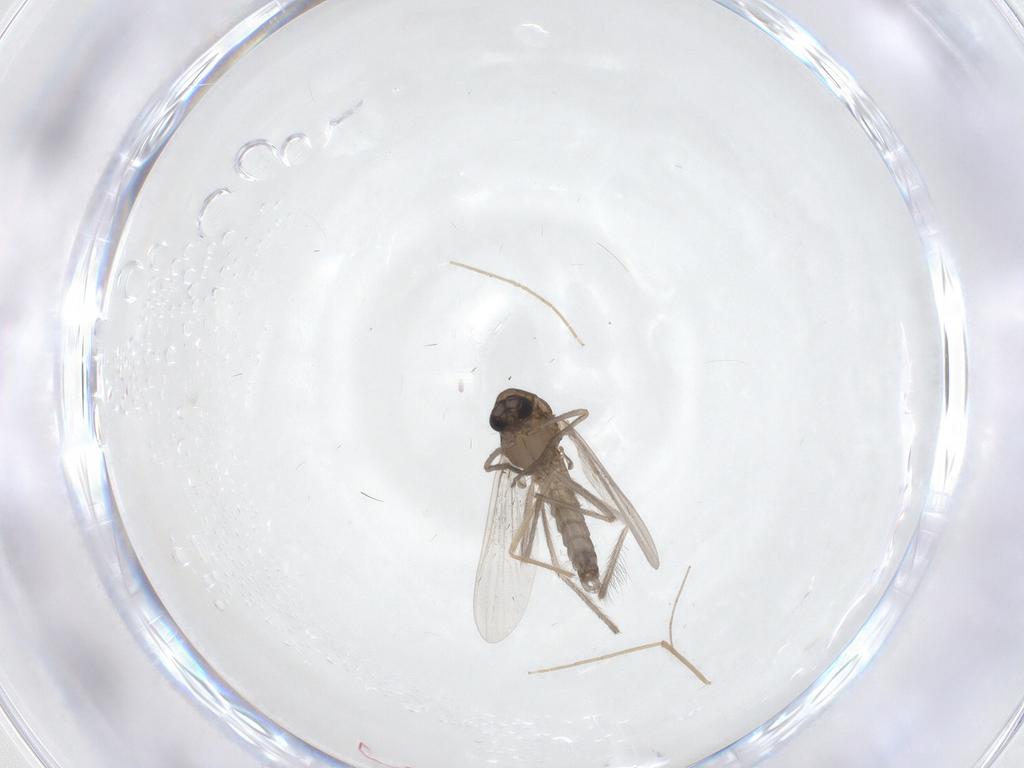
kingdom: Animalia
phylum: Arthropoda
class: Insecta
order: Diptera
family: Chironomidae
